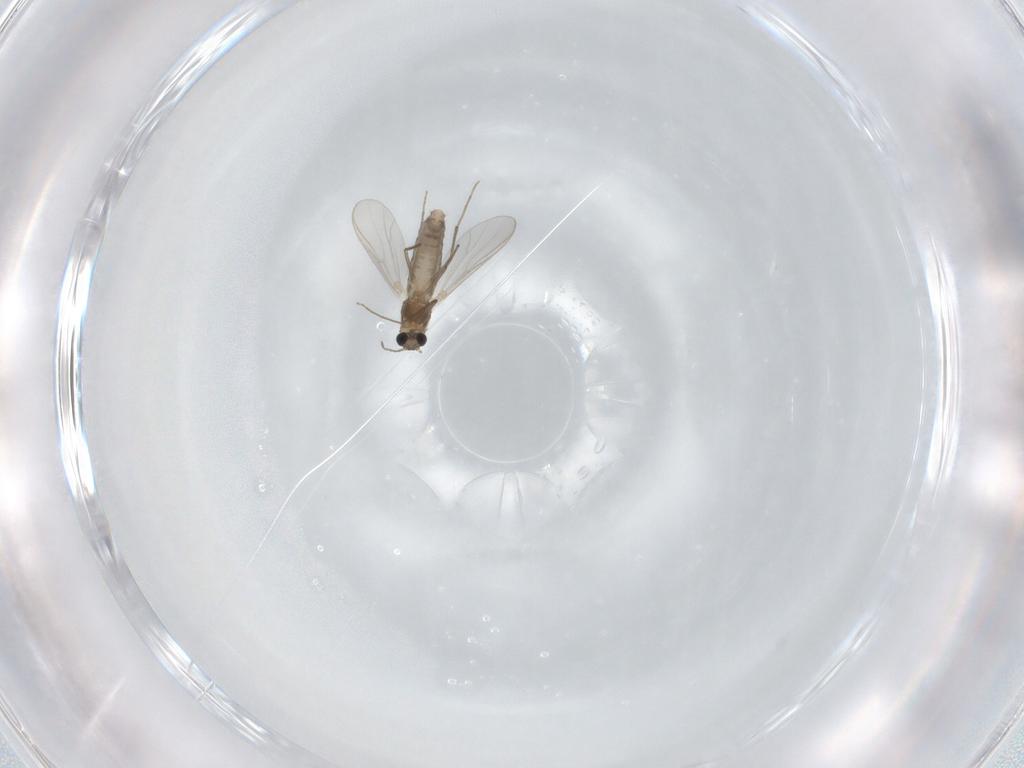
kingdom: Animalia
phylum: Arthropoda
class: Insecta
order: Diptera
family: Chironomidae
